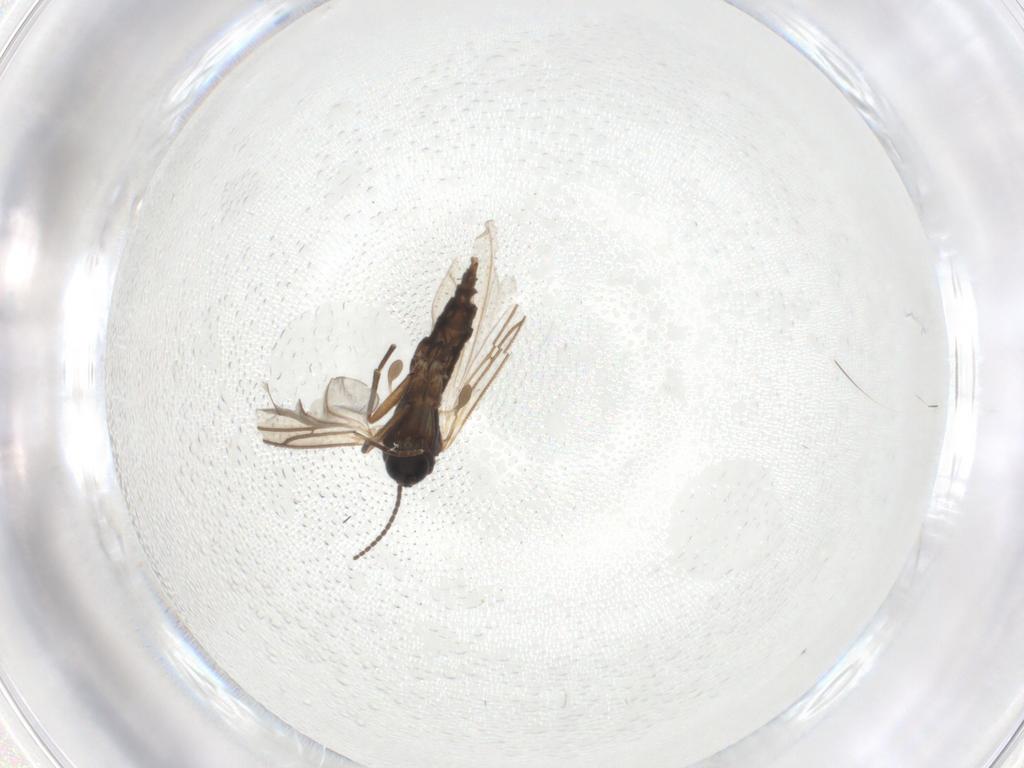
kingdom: Animalia
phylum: Arthropoda
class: Insecta
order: Diptera
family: Sciaridae
